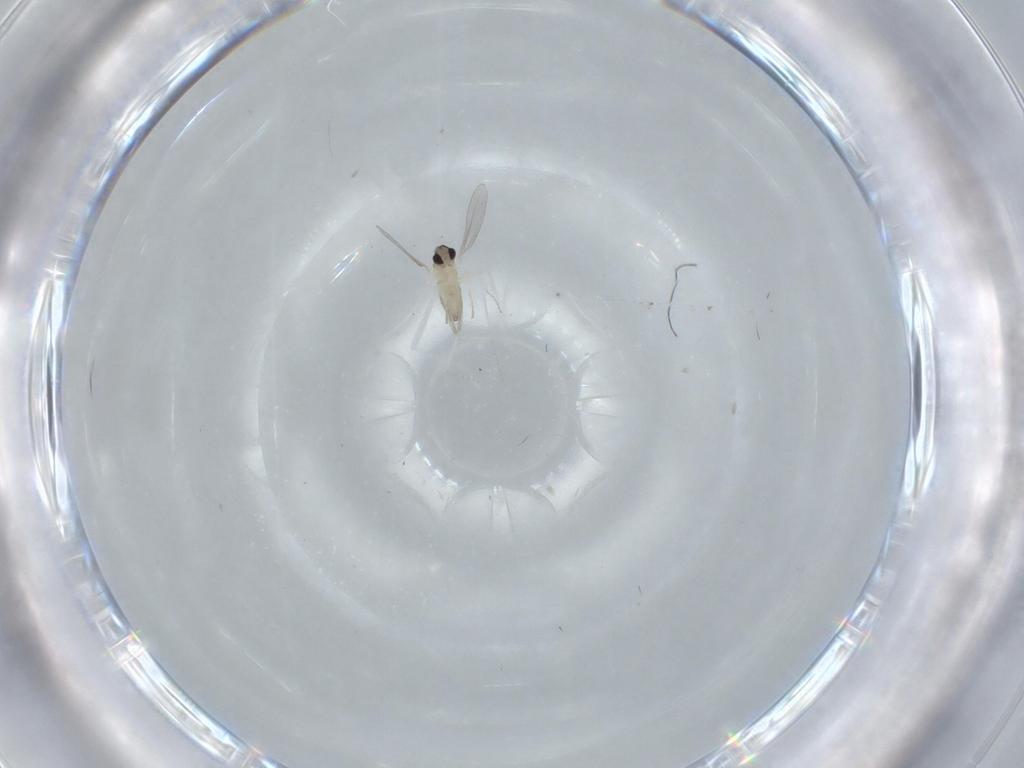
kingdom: Animalia
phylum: Arthropoda
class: Insecta
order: Diptera
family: Cecidomyiidae
